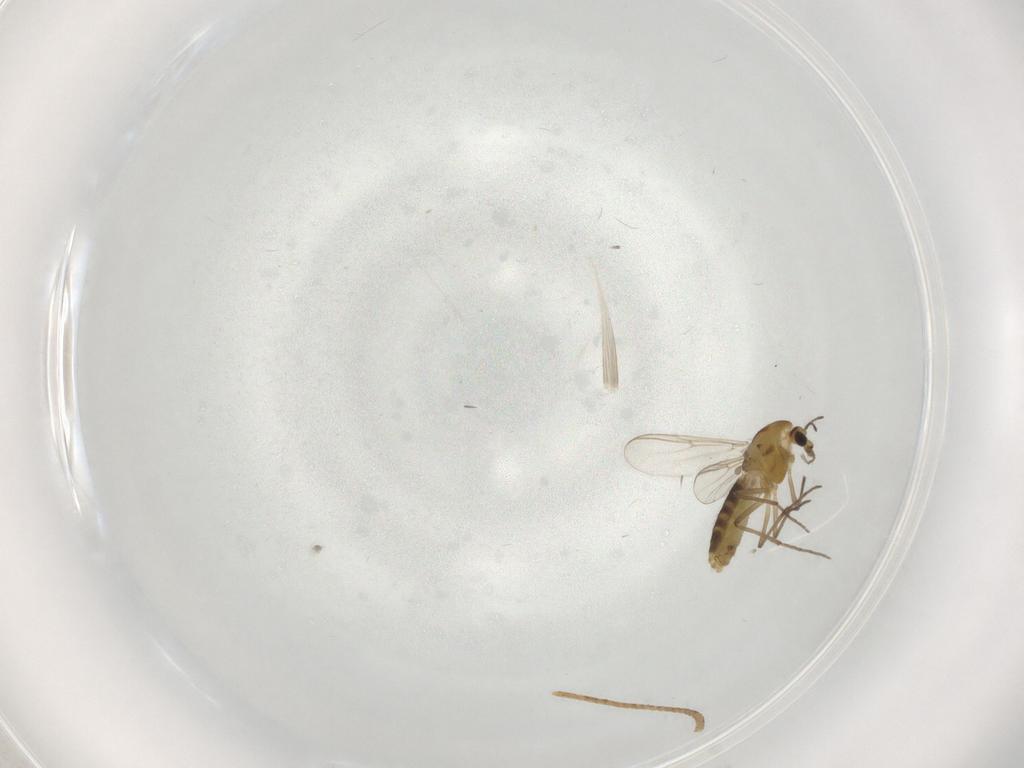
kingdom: Animalia
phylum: Arthropoda
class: Insecta
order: Diptera
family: Chironomidae
